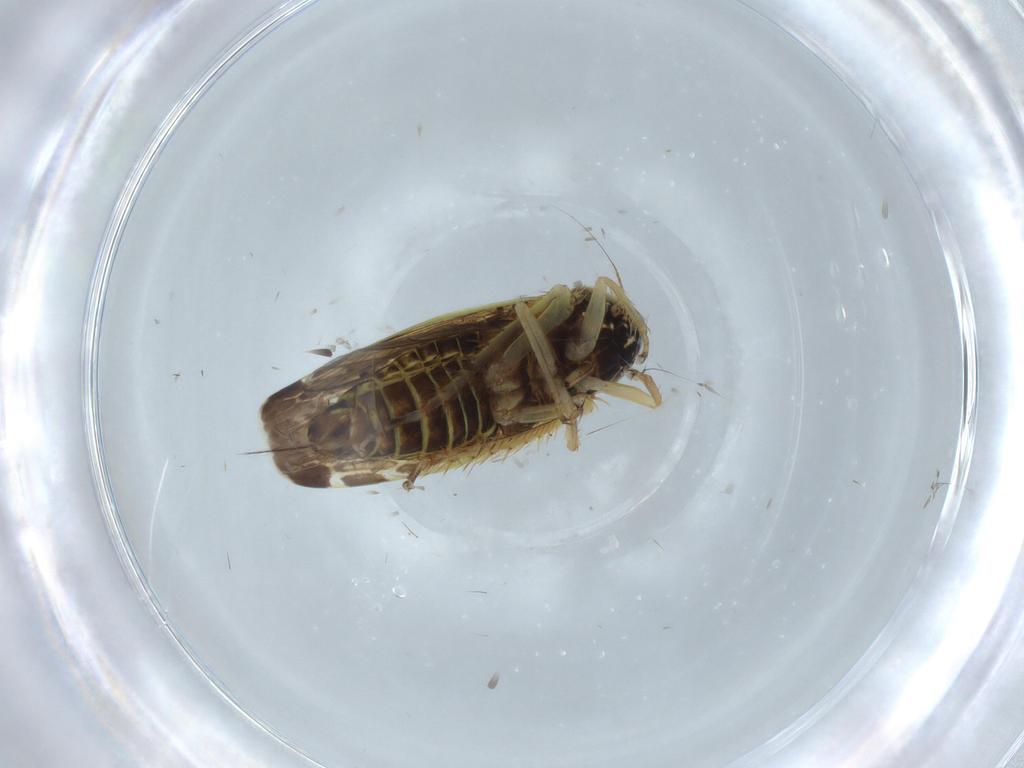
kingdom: Animalia
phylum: Arthropoda
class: Insecta
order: Hemiptera
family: Cicadellidae
